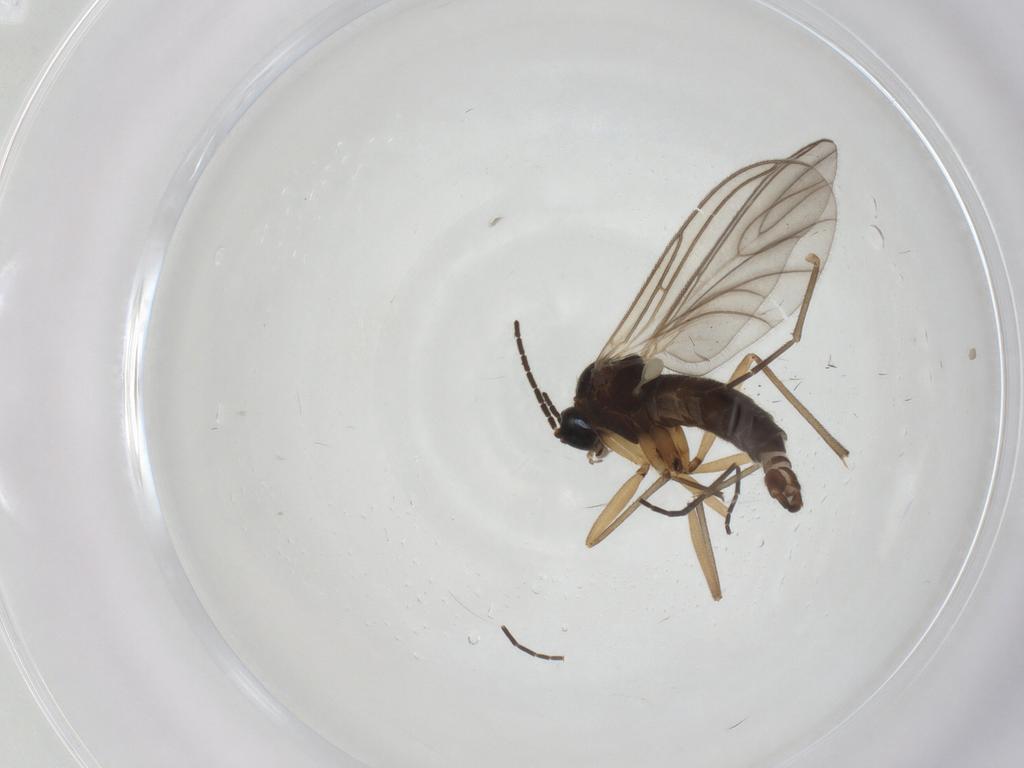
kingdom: Animalia
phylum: Arthropoda
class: Insecta
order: Diptera
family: Sciaridae
